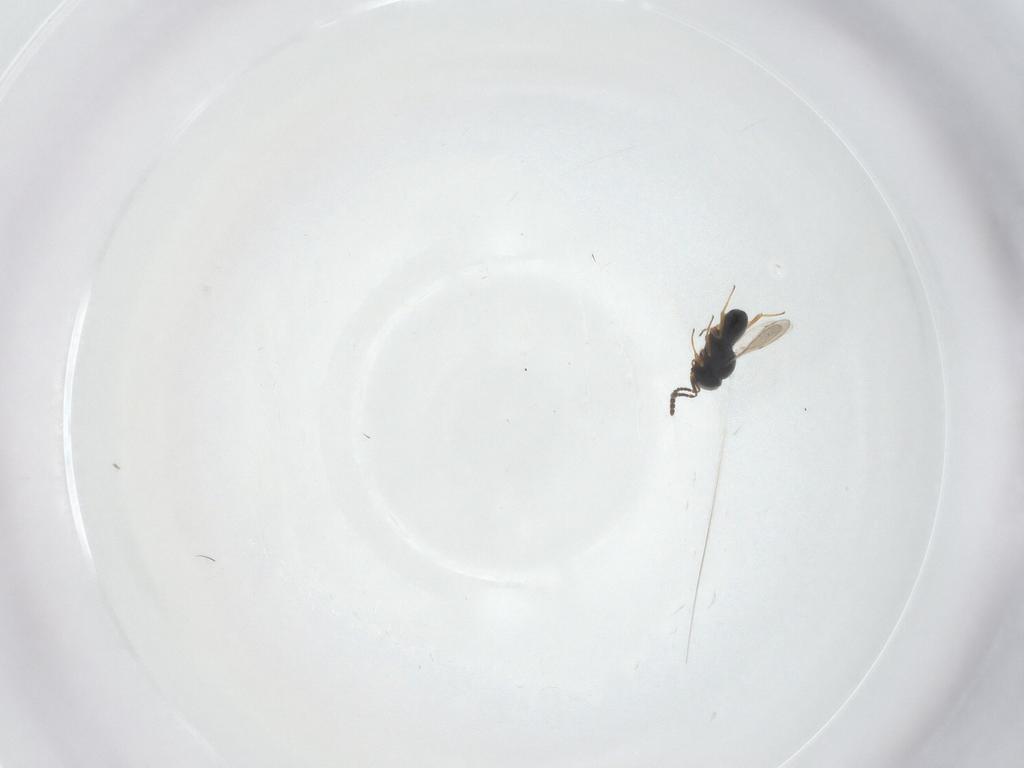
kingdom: Animalia
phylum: Arthropoda
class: Insecta
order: Hymenoptera
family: Scelionidae
